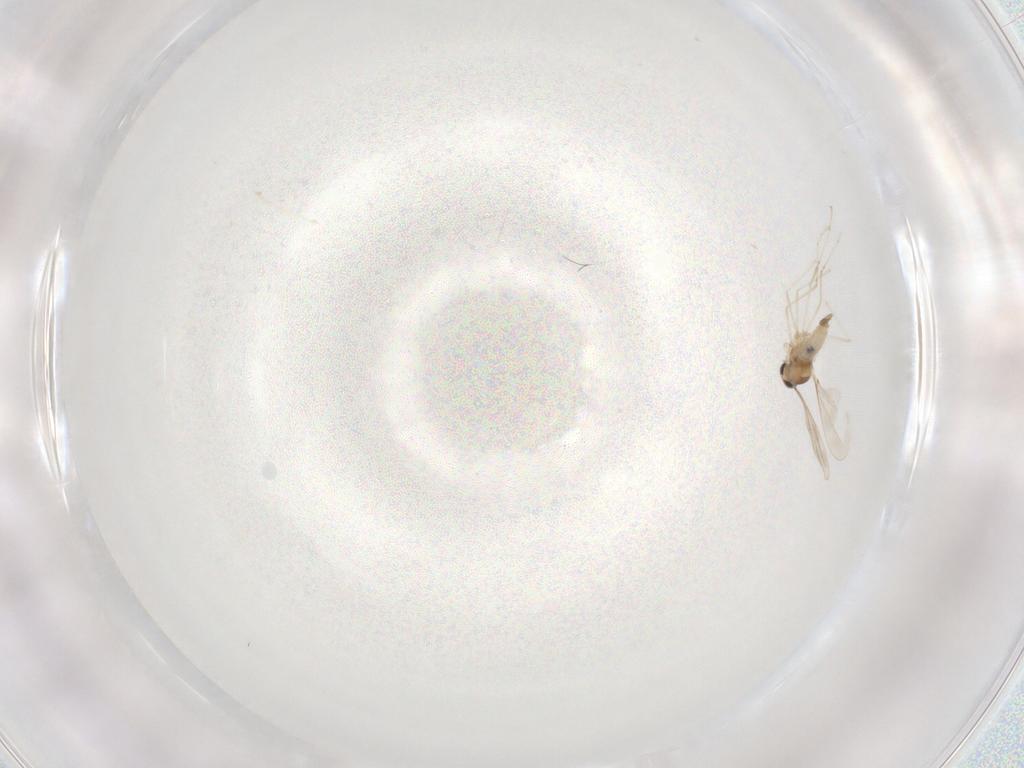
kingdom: Animalia
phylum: Arthropoda
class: Insecta
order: Diptera
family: Cecidomyiidae
